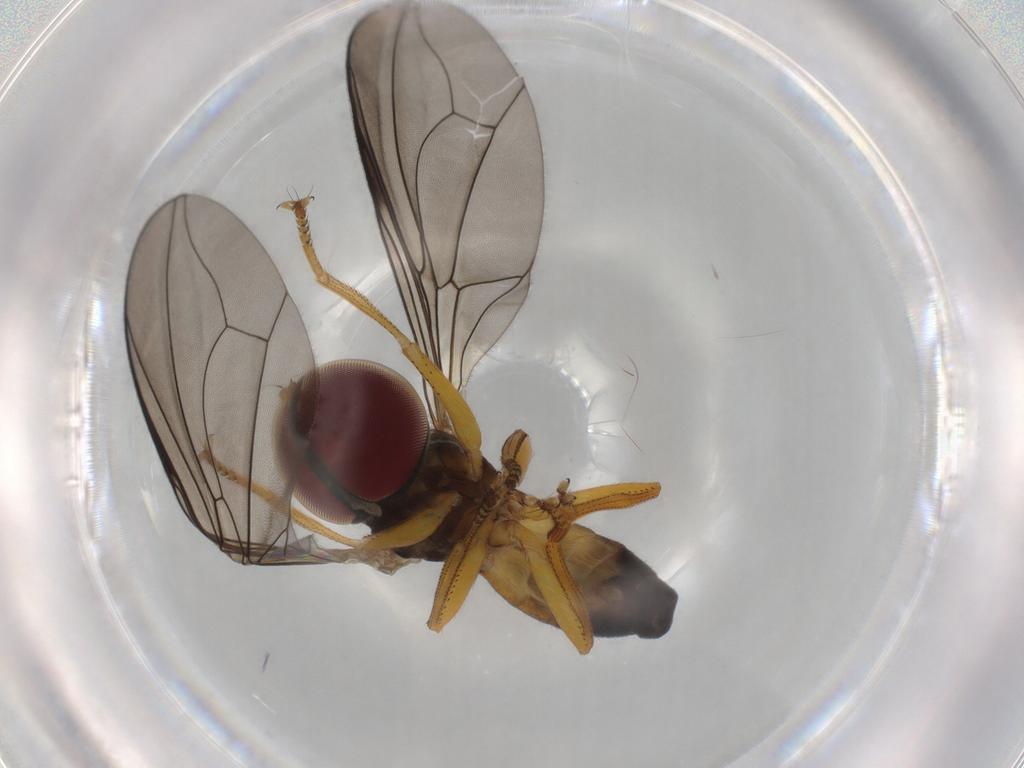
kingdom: Animalia
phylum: Arthropoda
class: Insecta
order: Diptera
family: Pipunculidae
